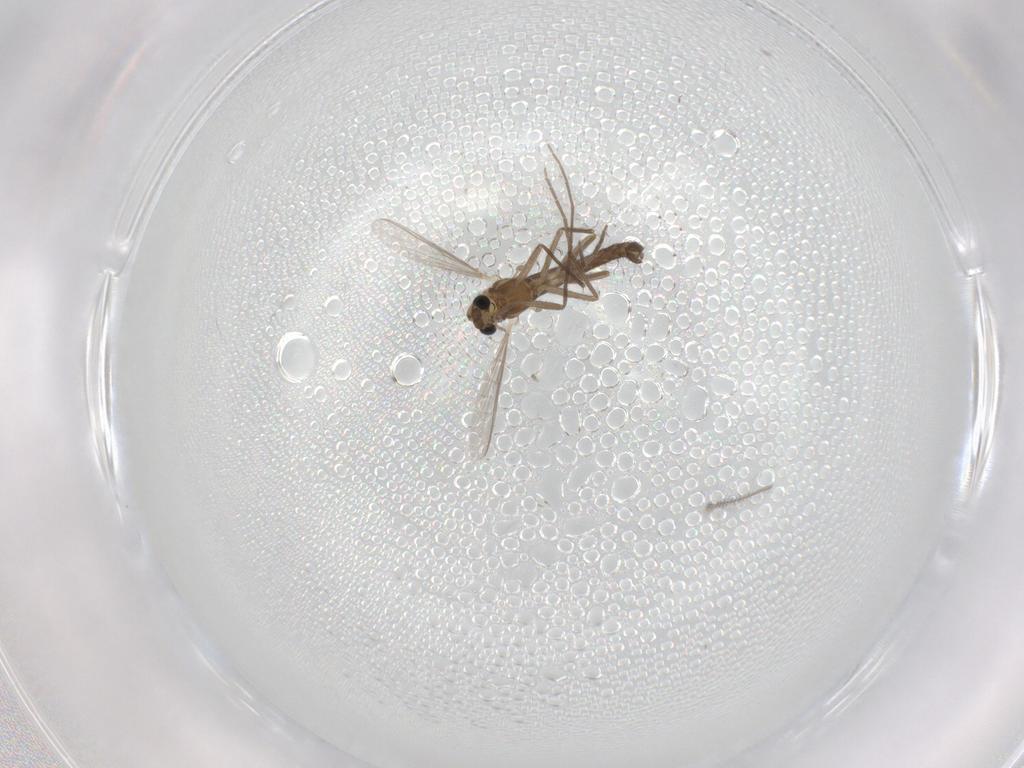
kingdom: Animalia
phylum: Arthropoda
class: Insecta
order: Diptera
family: Chironomidae
